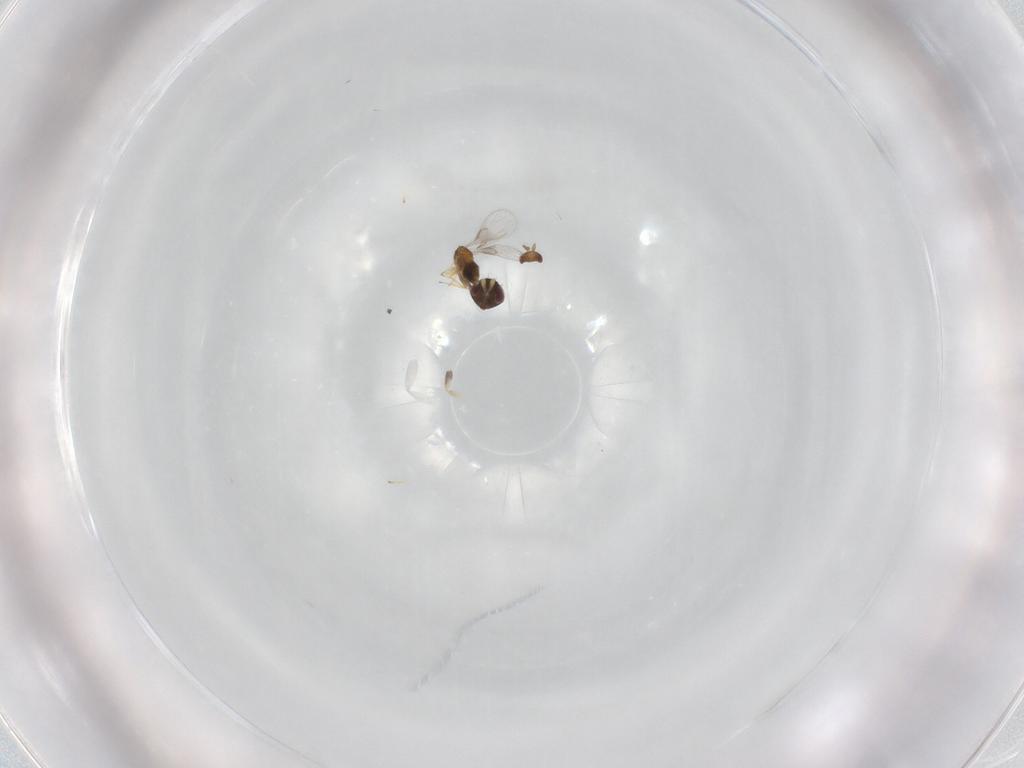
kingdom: Animalia
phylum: Arthropoda
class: Insecta
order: Hymenoptera
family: Trichogrammatidae
